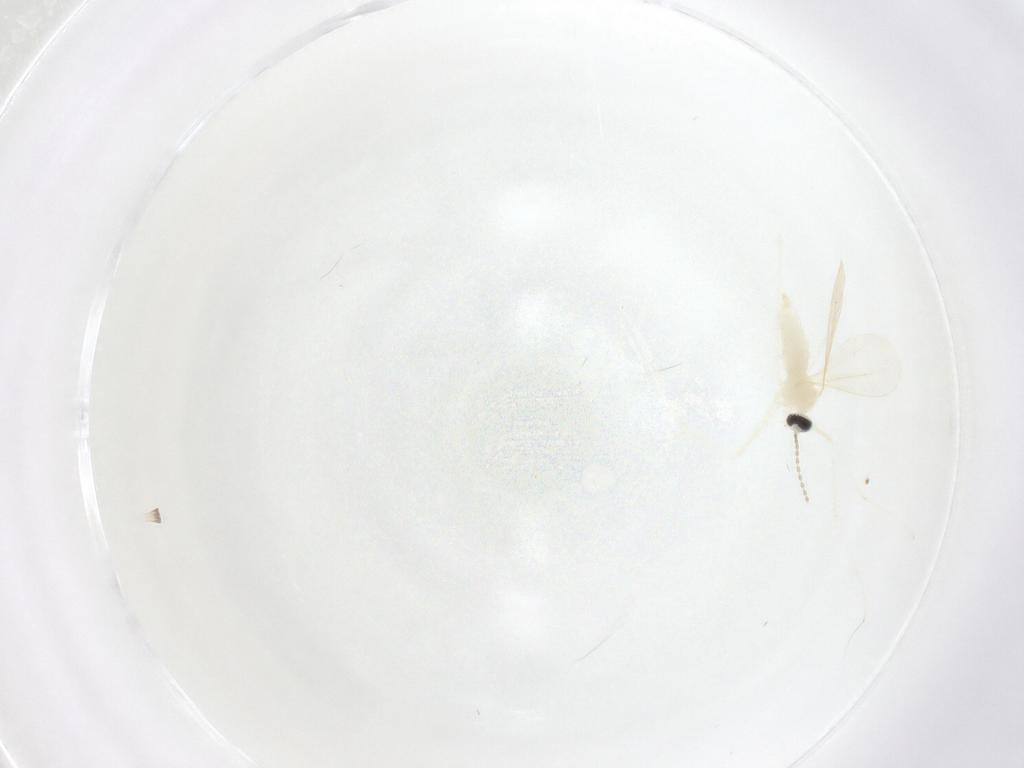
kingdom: Animalia
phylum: Arthropoda
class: Insecta
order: Diptera
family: Cecidomyiidae
